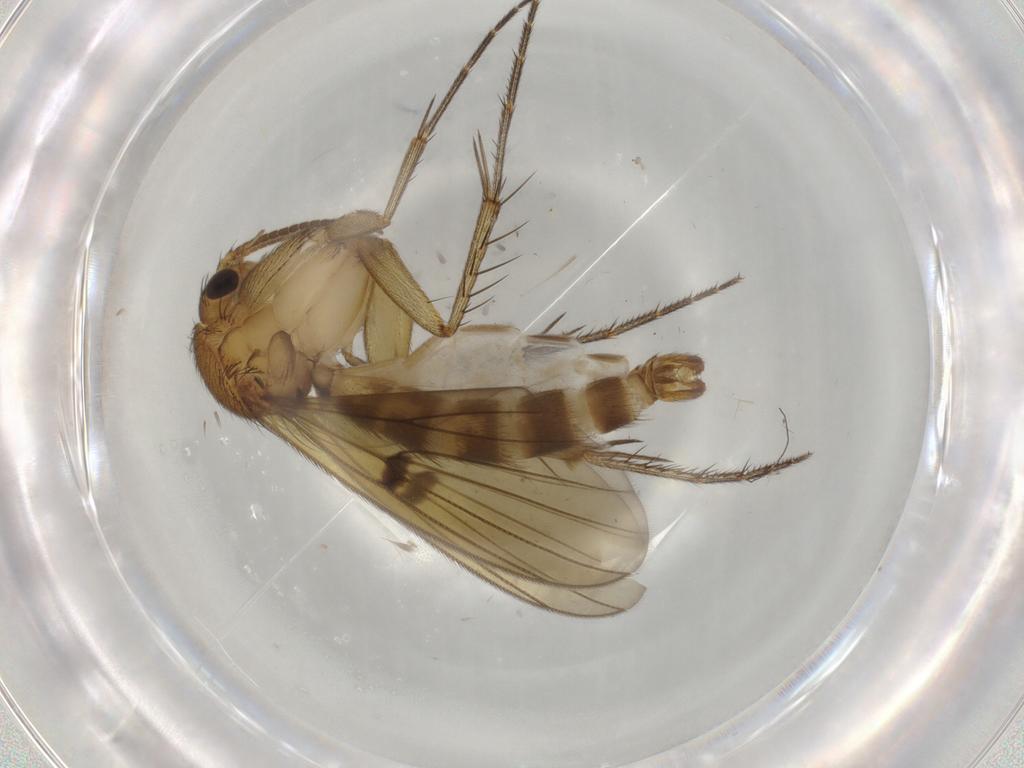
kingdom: Animalia
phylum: Arthropoda
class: Insecta
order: Diptera
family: Mycetophilidae
